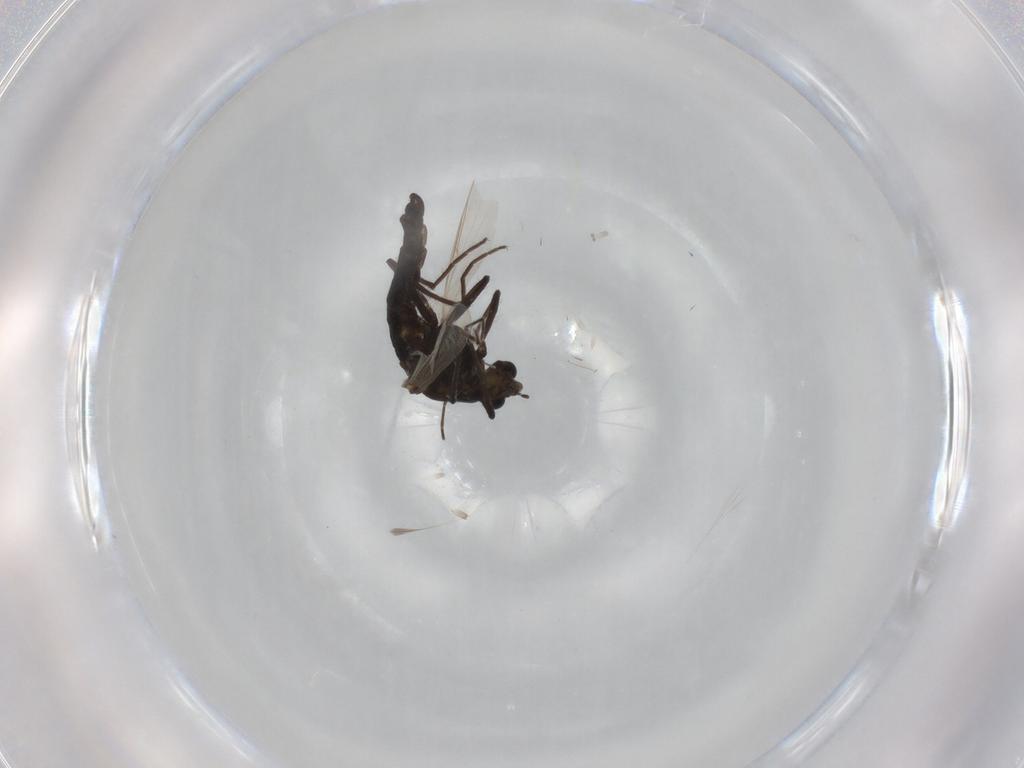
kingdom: Animalia
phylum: Arthropoda
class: Insecta
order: Diptera
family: Chironomidae
